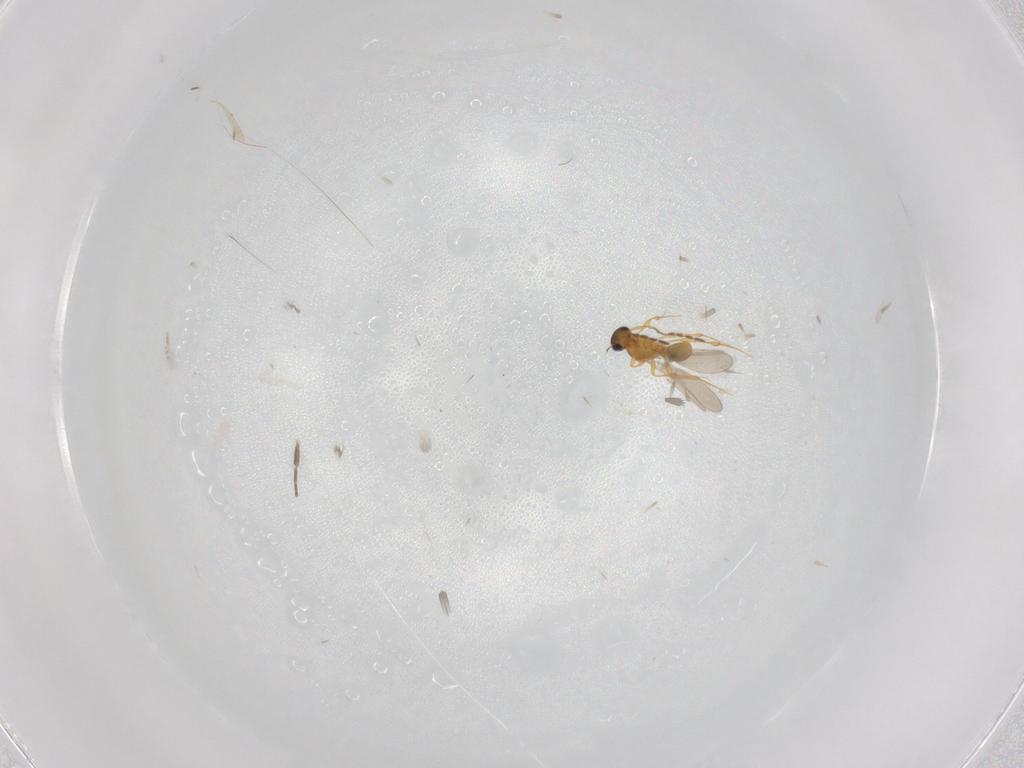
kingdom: Animalia
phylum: Arthropoda
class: Insecta
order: Hymenoptera
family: Platygastridae
